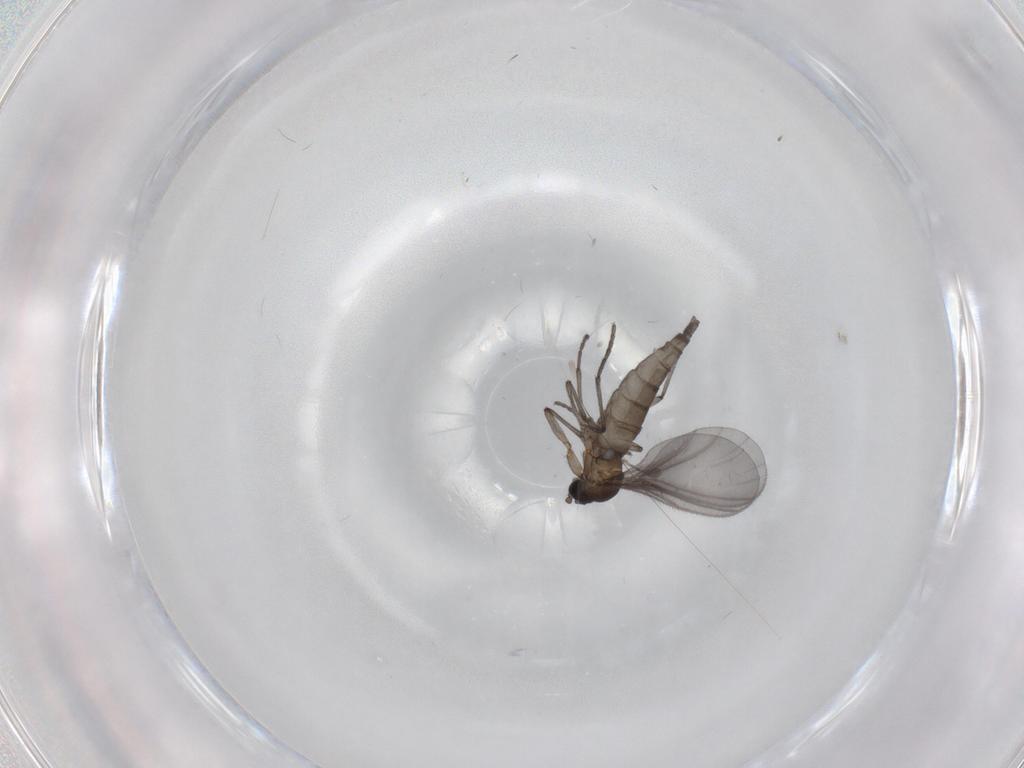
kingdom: Animalia
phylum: Arthropoda
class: Insecta
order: Diptera
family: Sciaridae
